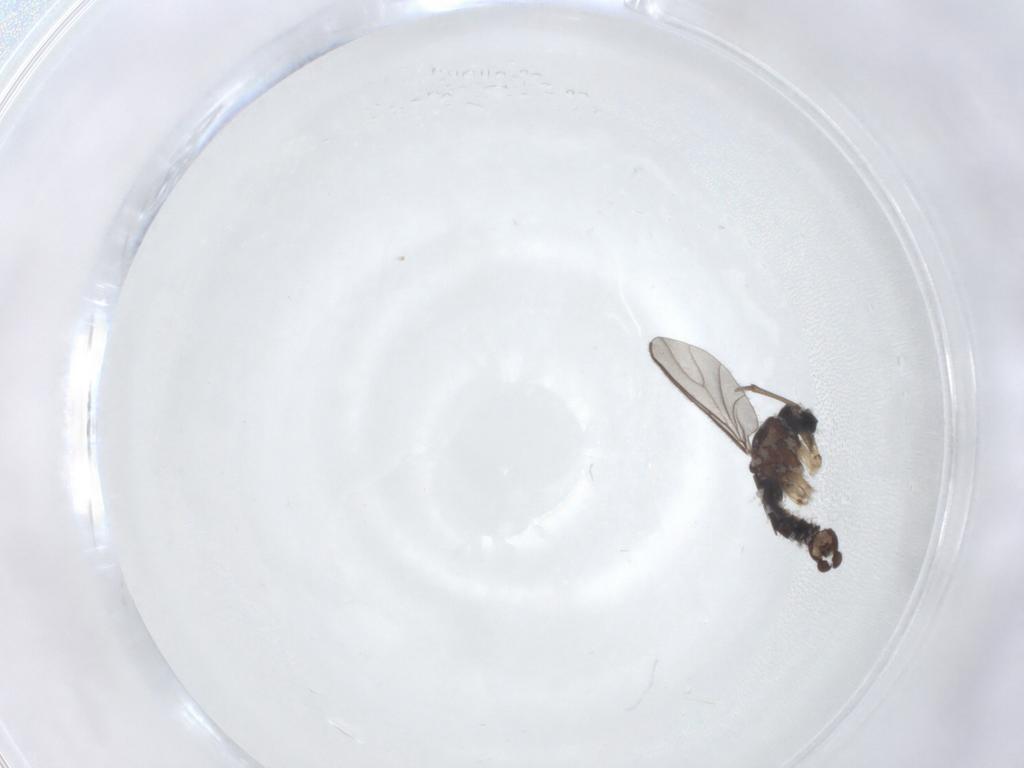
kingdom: Animalia
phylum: Arthropoda
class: Insecta
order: Diptera
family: Sciaridae
